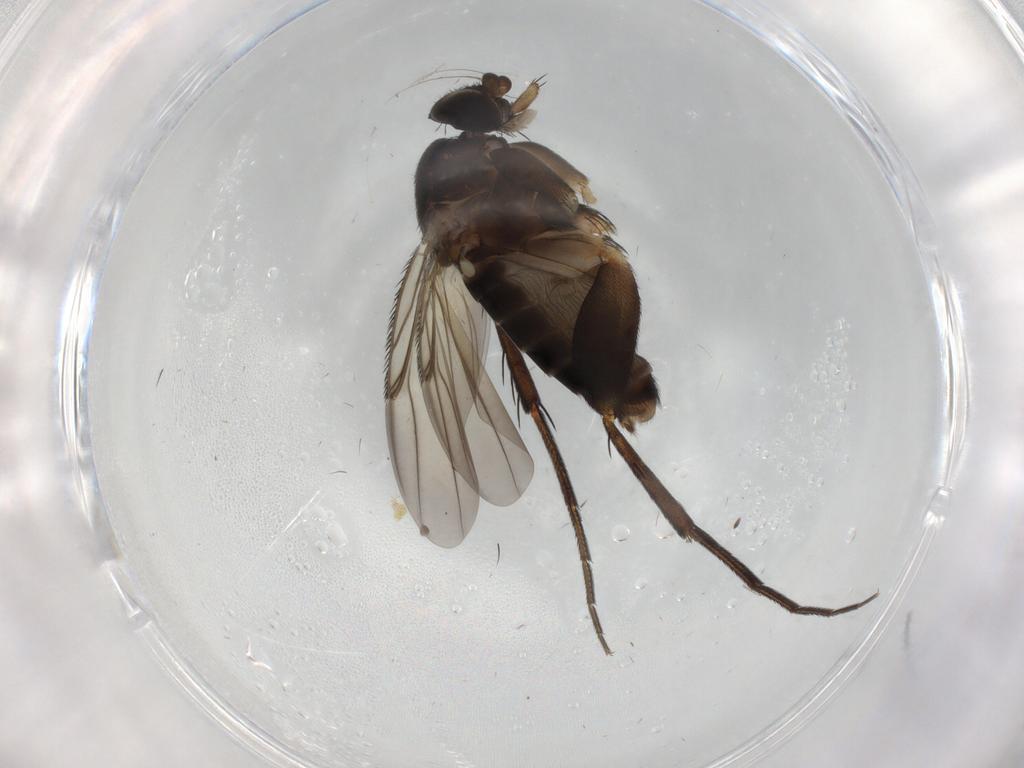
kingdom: Animalia
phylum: Arthropoda
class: Insecta
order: Diptera
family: Phoridae
